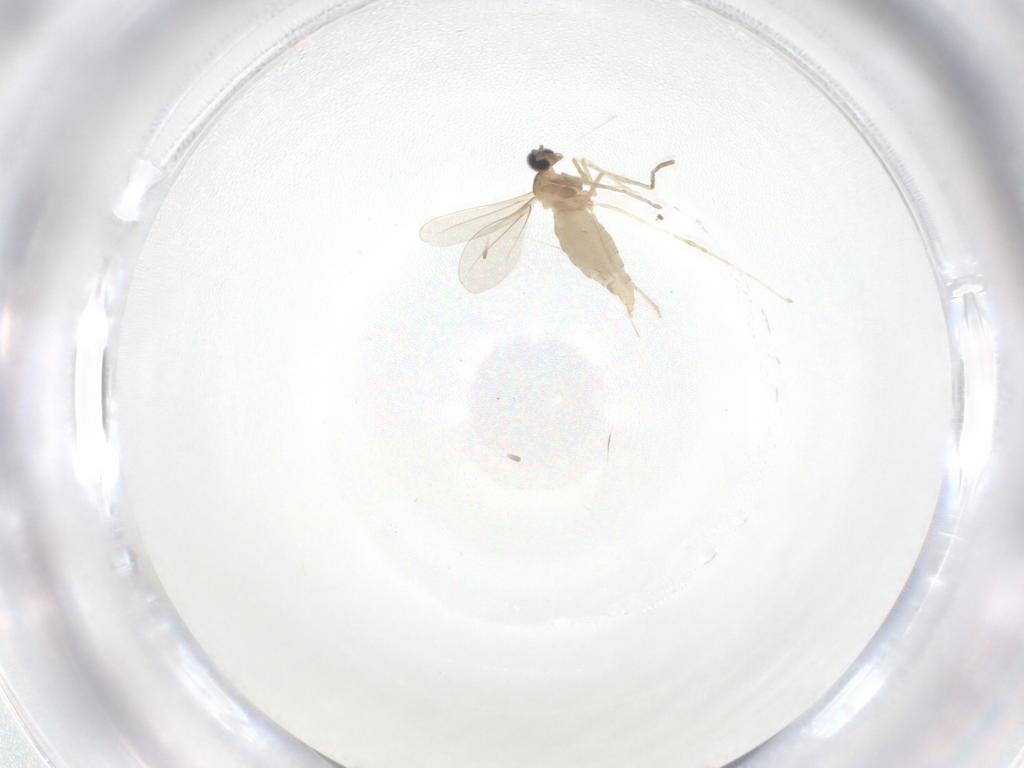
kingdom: Animalia
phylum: Arthropoda
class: Insecta
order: Diptera
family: Cecidomyiidae
